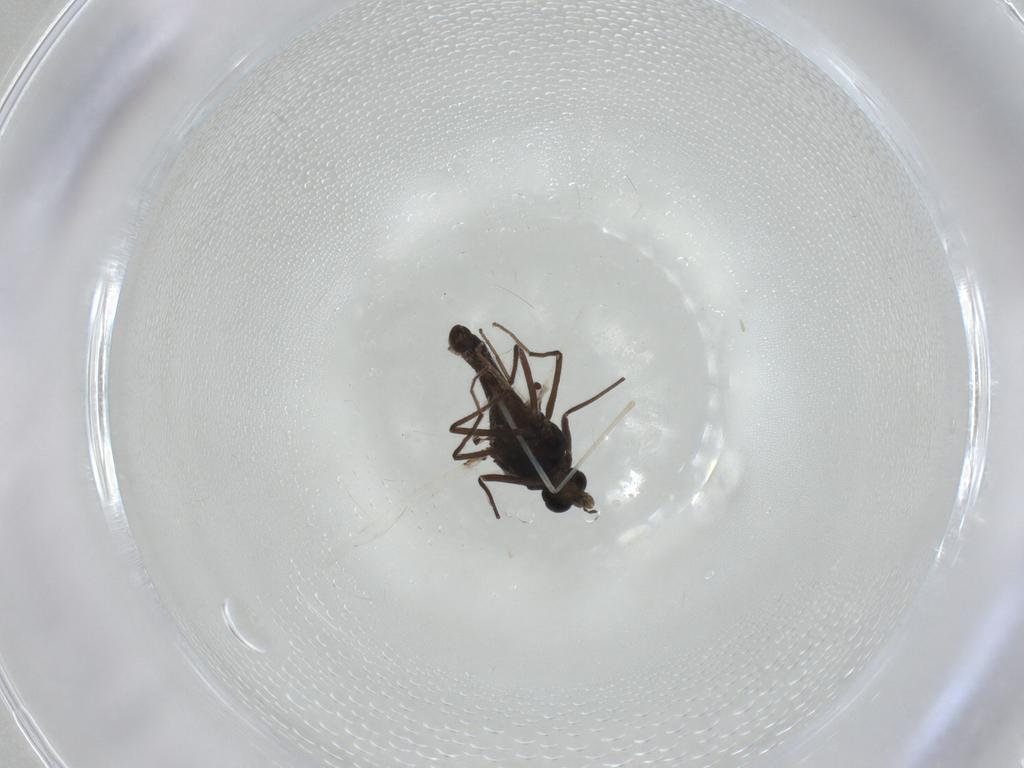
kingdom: Animalia
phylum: Arthropoda
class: Insecta
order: Diptera
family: Chironomidae
